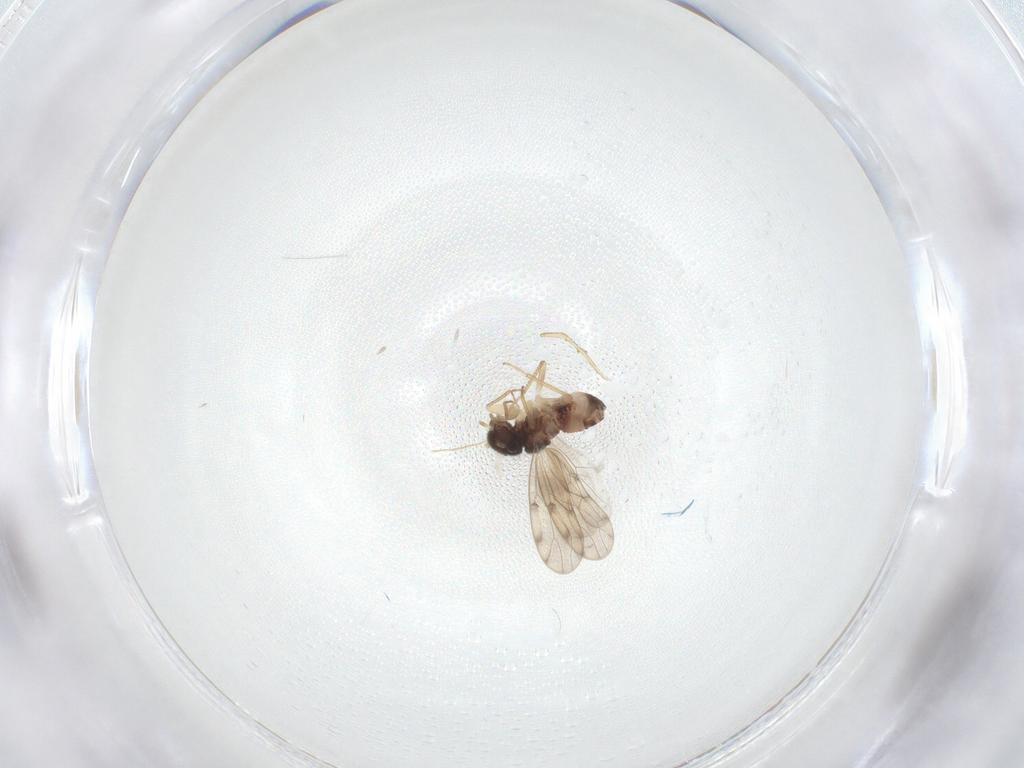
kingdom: Animalia
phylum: Arthropoda
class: Insecta
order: Psocodea
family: Peripsocidae
